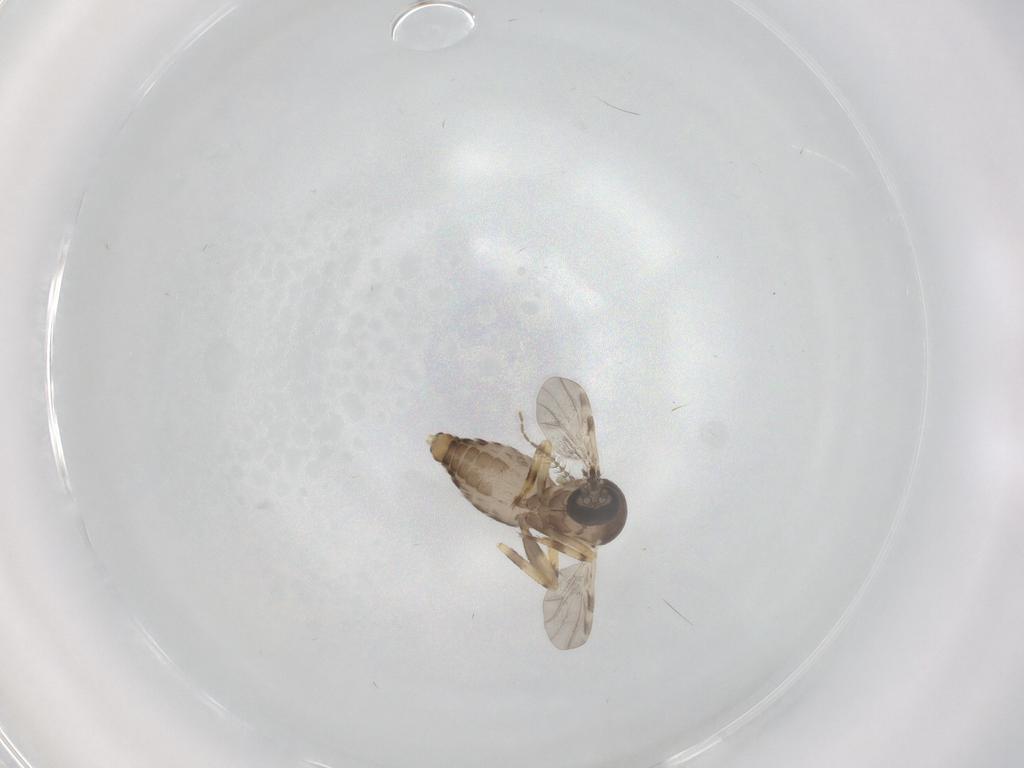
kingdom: Animalia
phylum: Arthropoda
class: Insecta
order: Diptera
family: Ceratopogonidae
